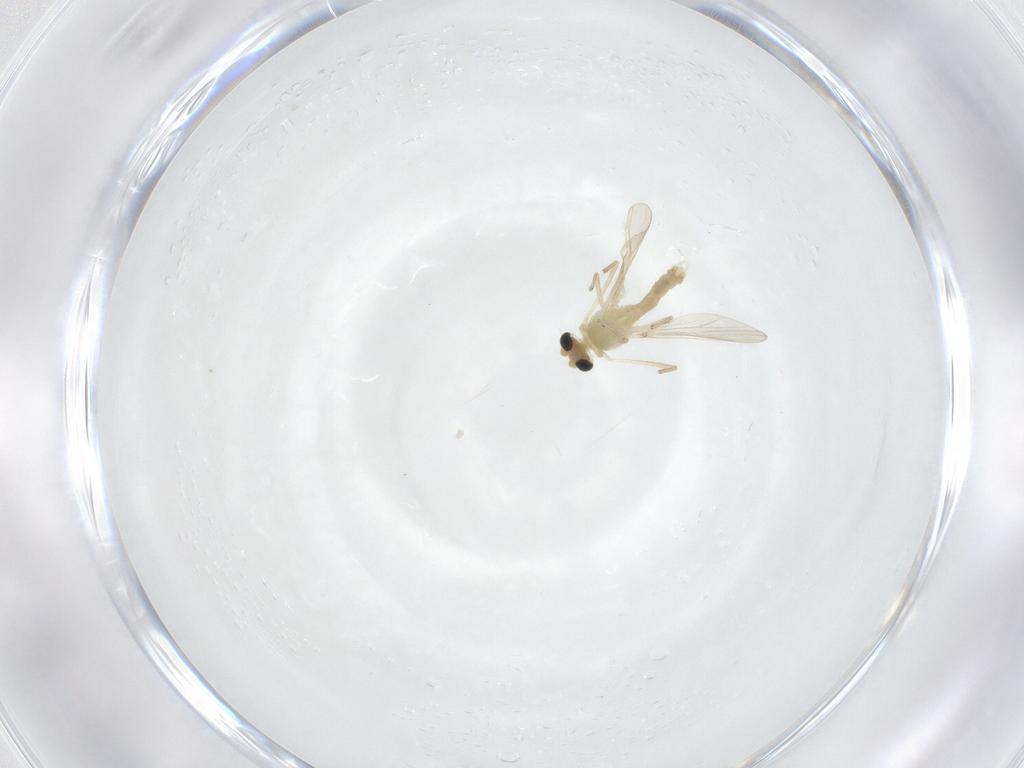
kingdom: Animalia
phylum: Arthropoda
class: Insecta
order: Diptera
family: Chironomidae
